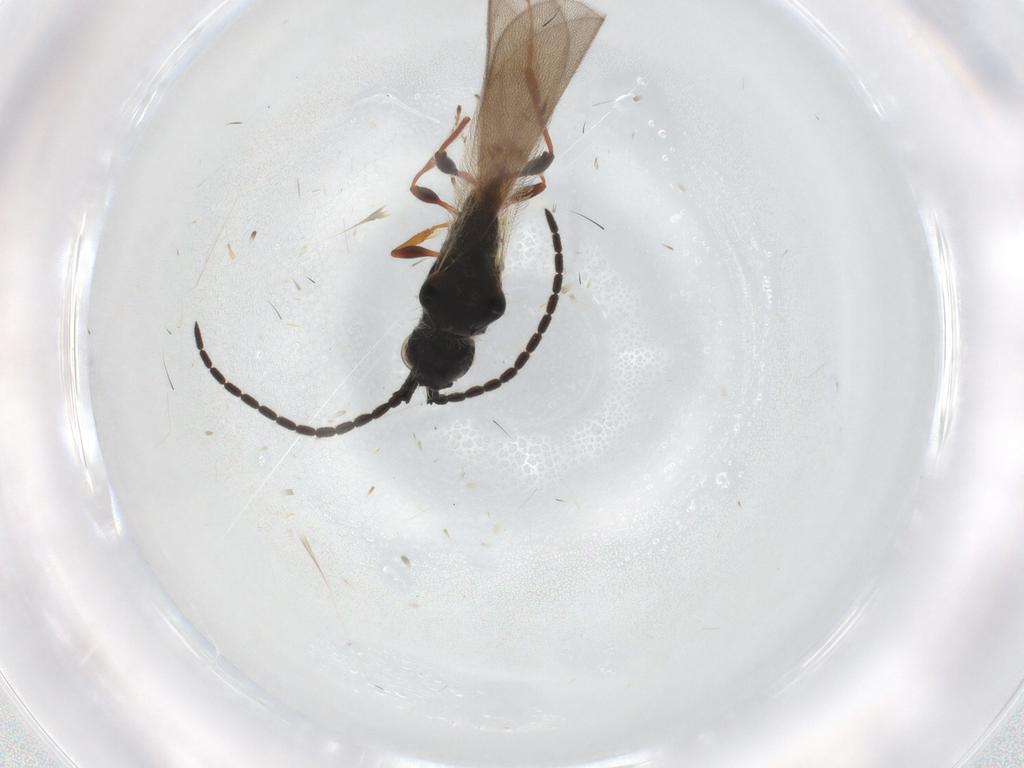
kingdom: Animalia
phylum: Arthropoda
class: Insecta
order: Hymenoptera
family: Diapriidae
